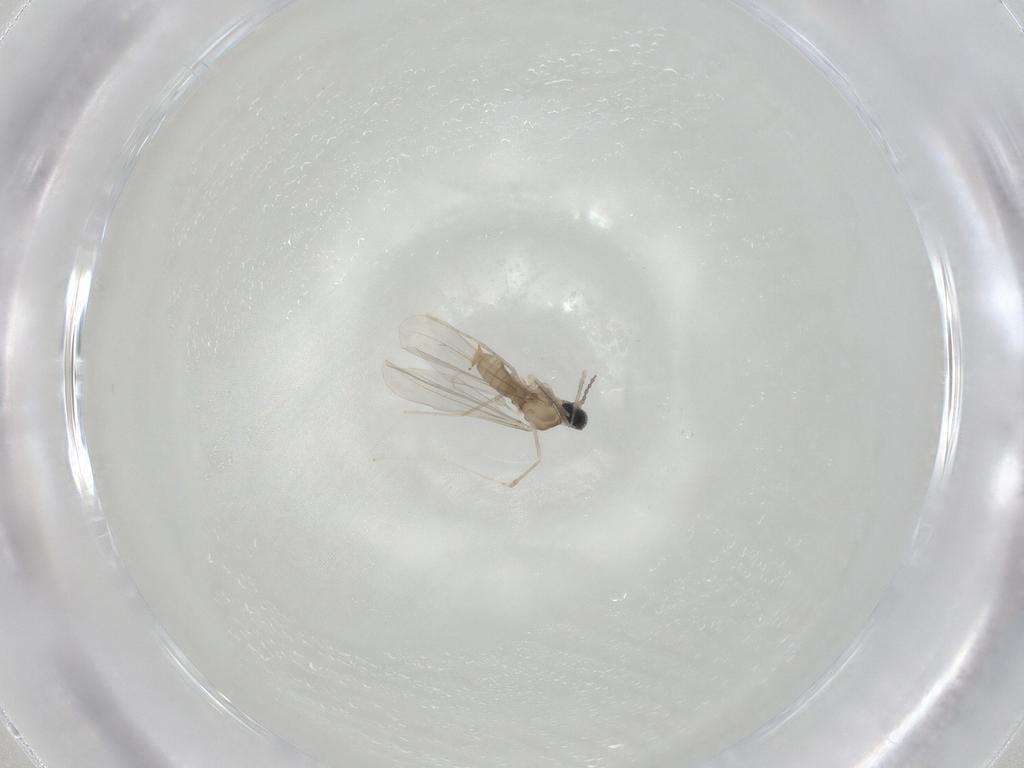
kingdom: Animalia
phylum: Arthropoda
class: Insecta
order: Diptera
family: Cecidomyiidae
